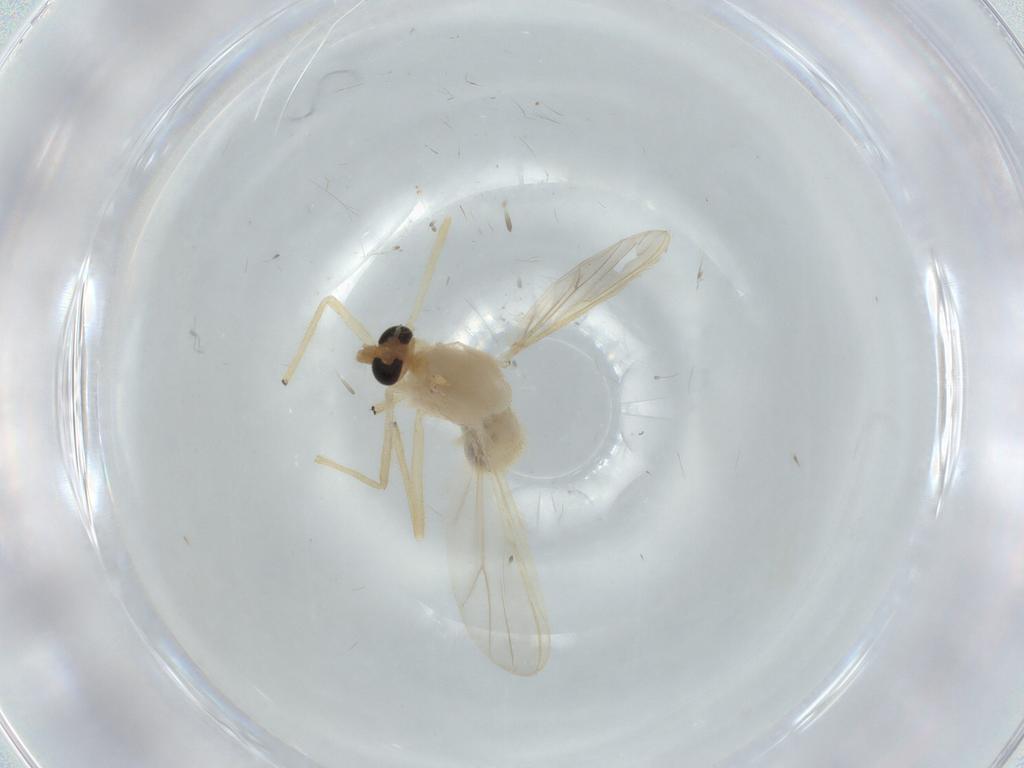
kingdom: Animalia
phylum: Arthropoda
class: Insecta
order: Diptera
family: Chironomidae
